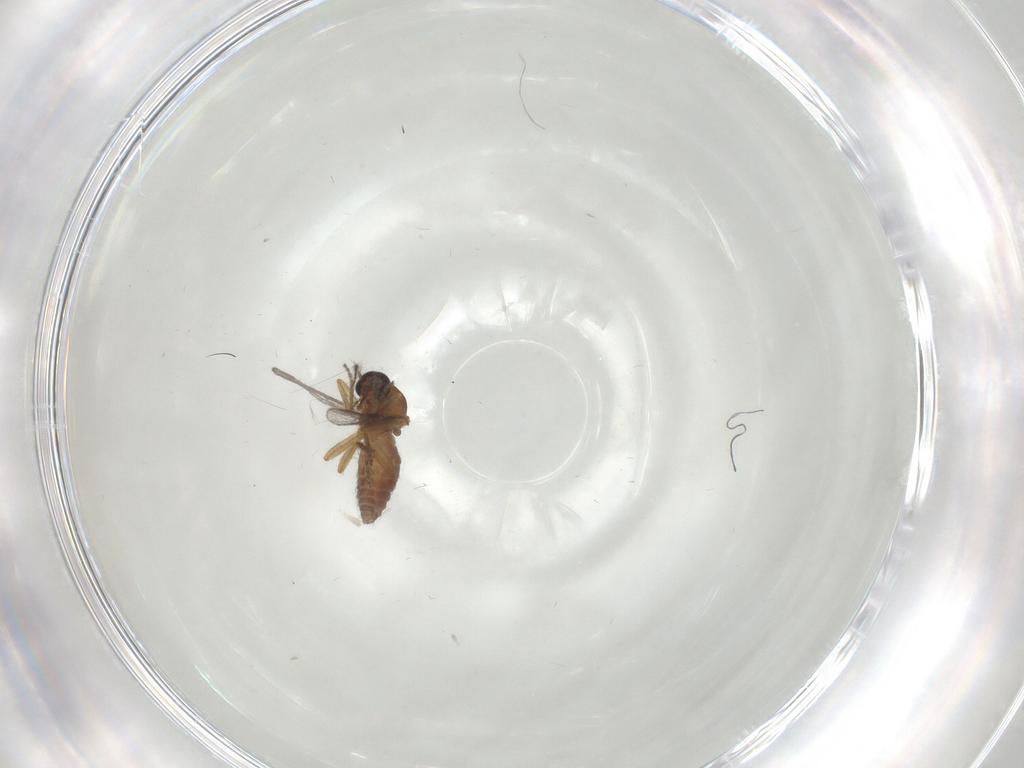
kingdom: Animalia
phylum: Arthropoda
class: Insecta
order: Diptera
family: Ceratopogonidae
